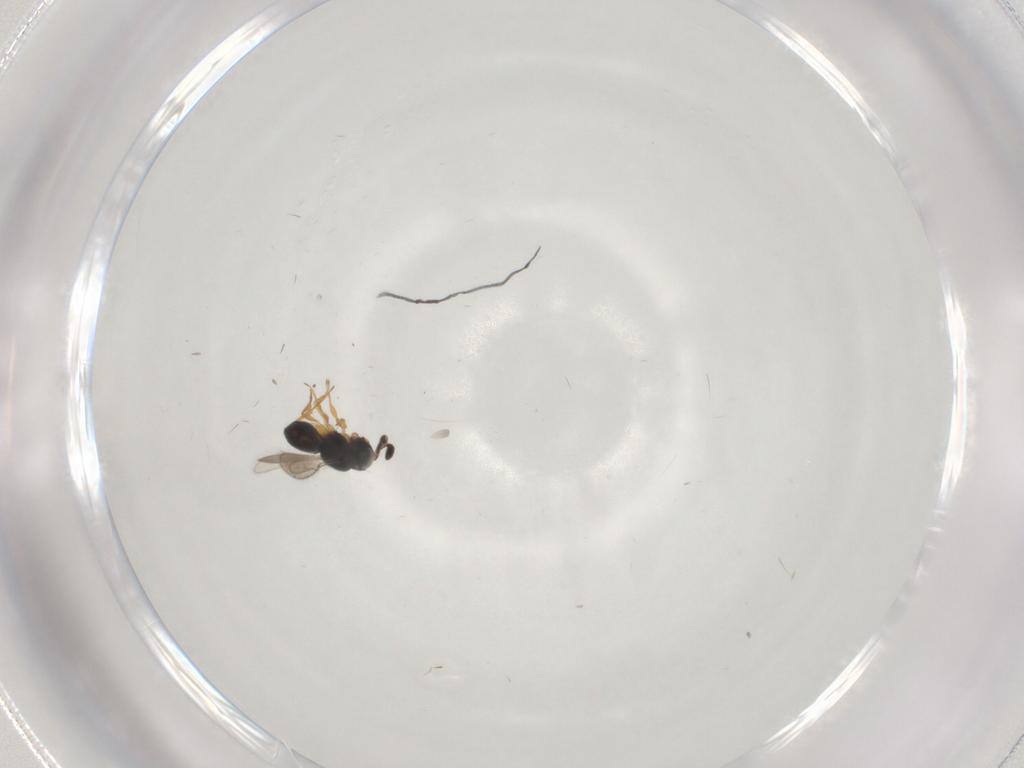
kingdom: Animalia
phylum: Arthropoda
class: Insecta
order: Hymenoptera
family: Scelionidae
